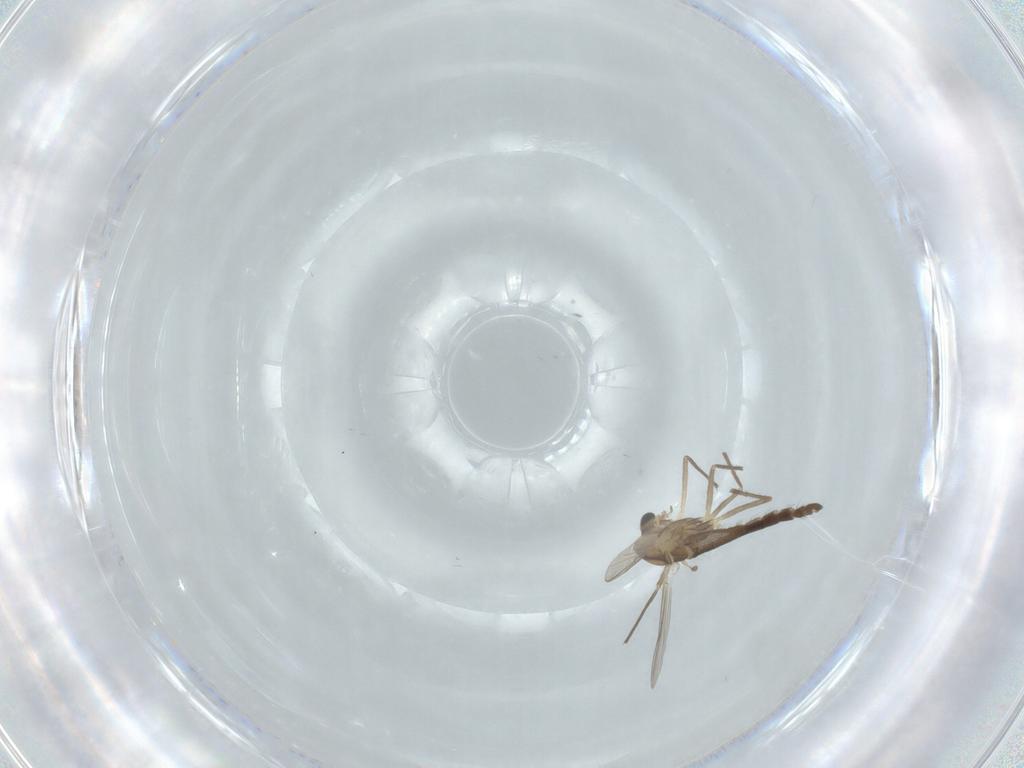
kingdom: Animalia
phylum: Arthropoda
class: Insecta
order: Diptera
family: Chironomidae
